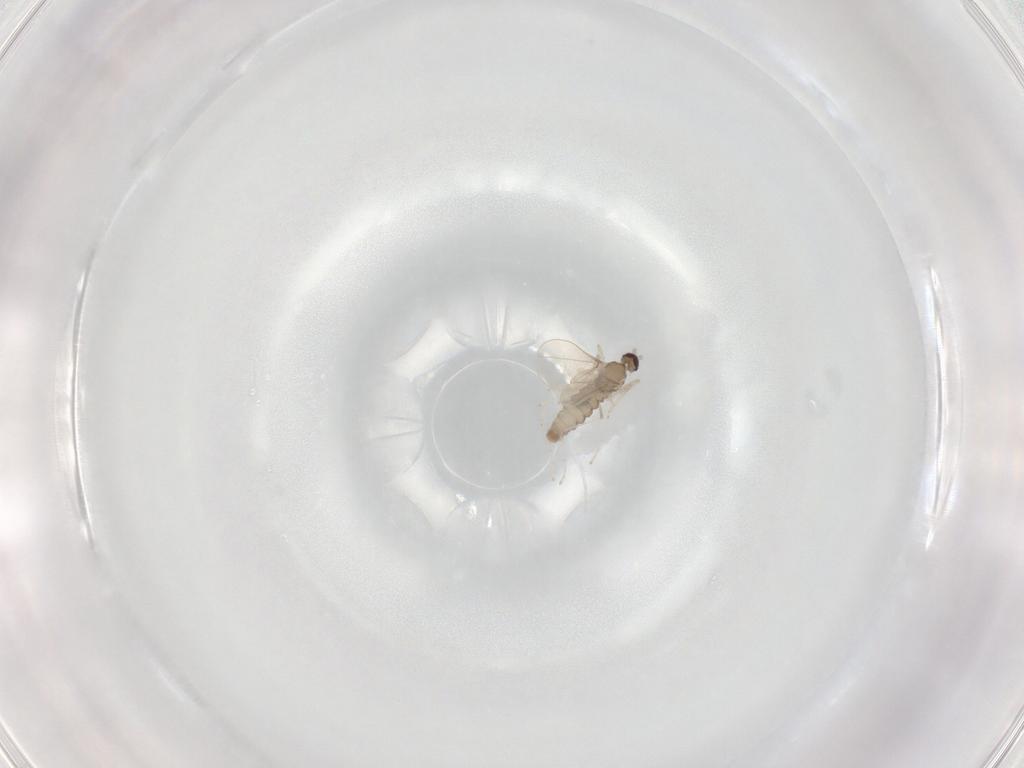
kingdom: Animalia
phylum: Arthropoda
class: Insecta
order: Diptera
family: Cecidomyiidae
